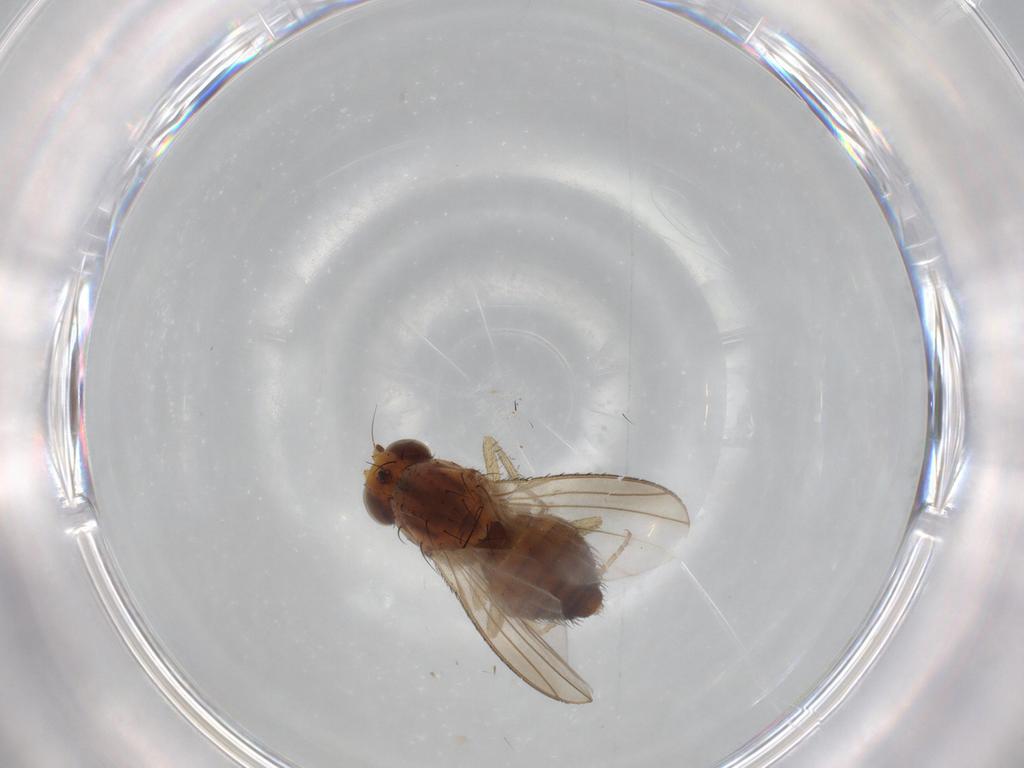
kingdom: Animalia
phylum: Arthropoda
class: Insecta
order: Diptera
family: Heleomyzidae
